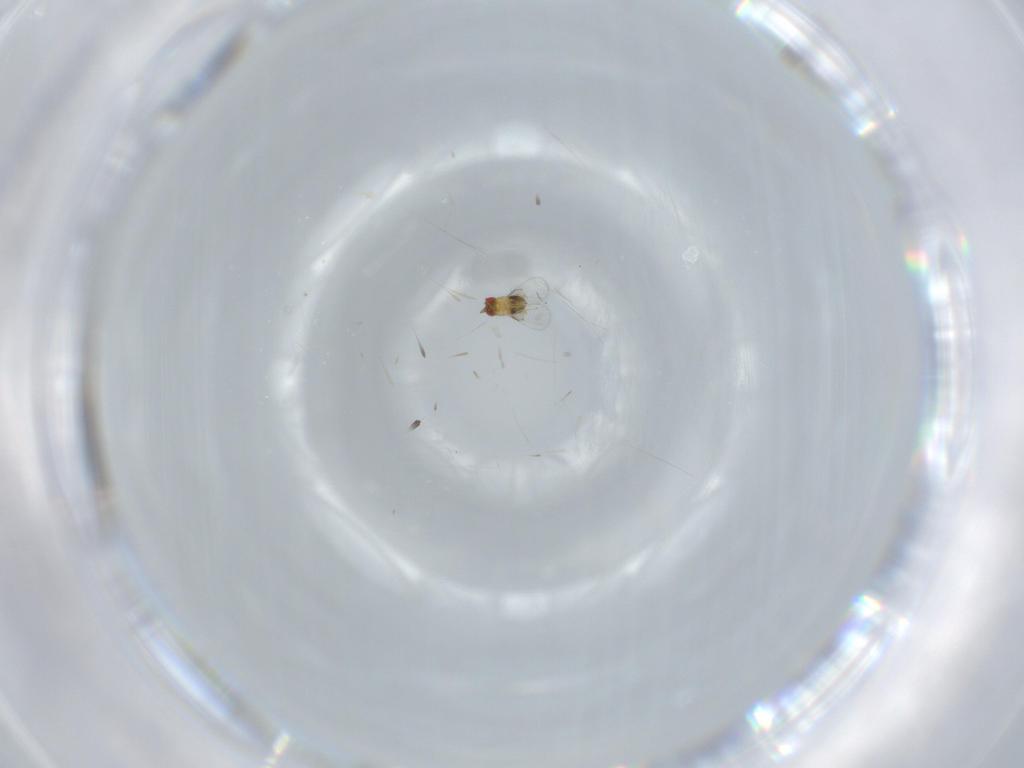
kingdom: Animalia
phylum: Arthropoda
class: Insecta
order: Hymenoptera
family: Trichogrammatidae
